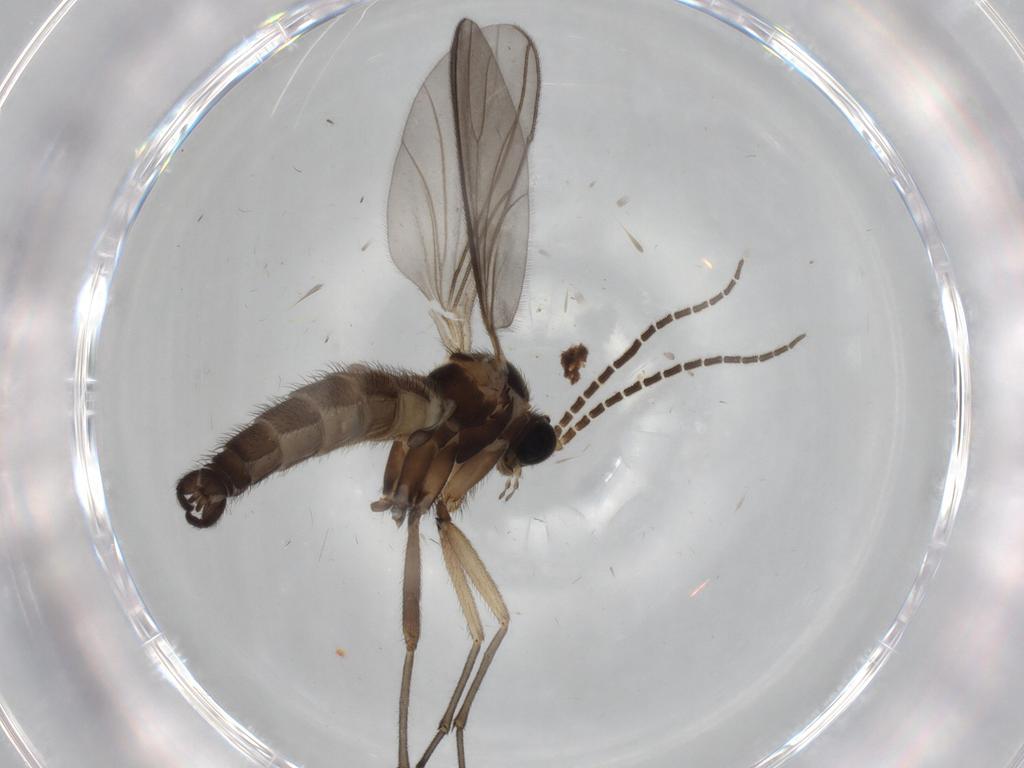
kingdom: Animalia
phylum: Arthropoda
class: Insecta
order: Diptera
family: Sciaridae
